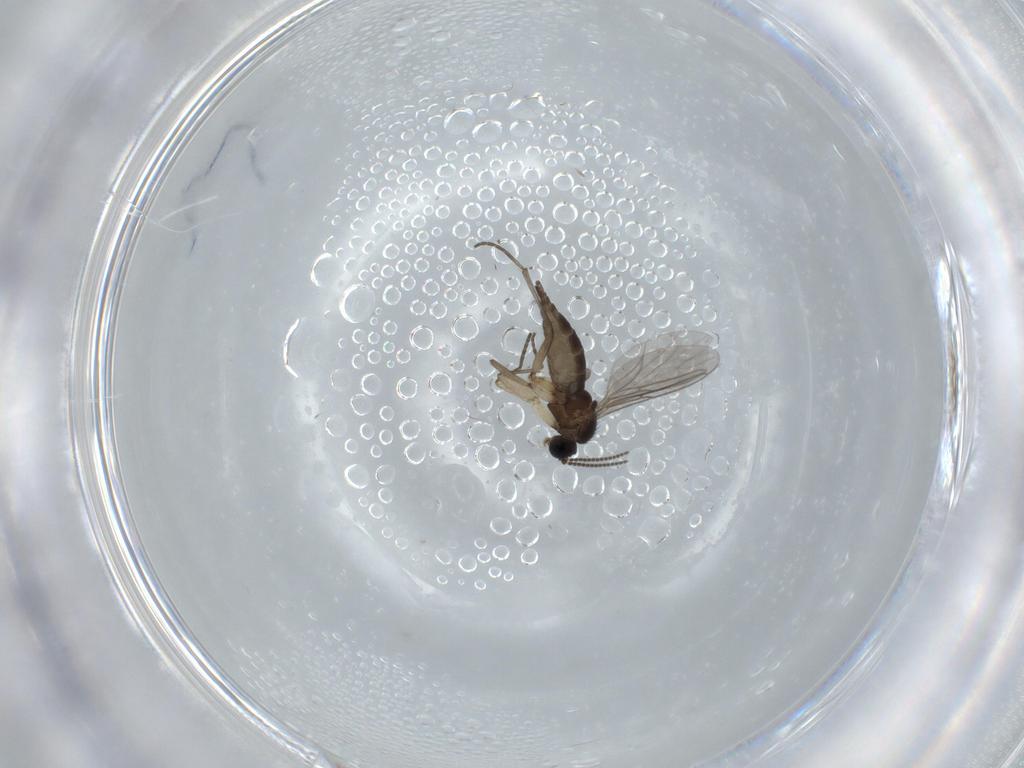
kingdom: Animalia
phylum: Arthropoda
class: Insecta
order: Diptera
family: Sciaridae
